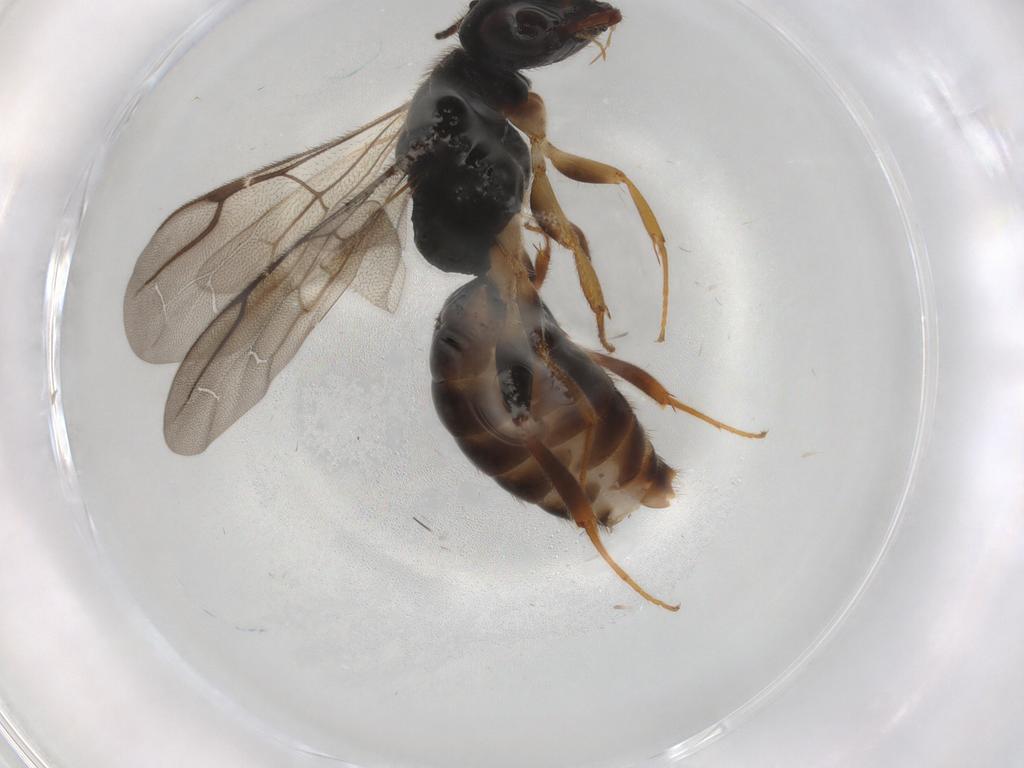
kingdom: Animalia
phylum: Arthropoda
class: Insecta
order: Hymenoptera
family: Bethylidae
